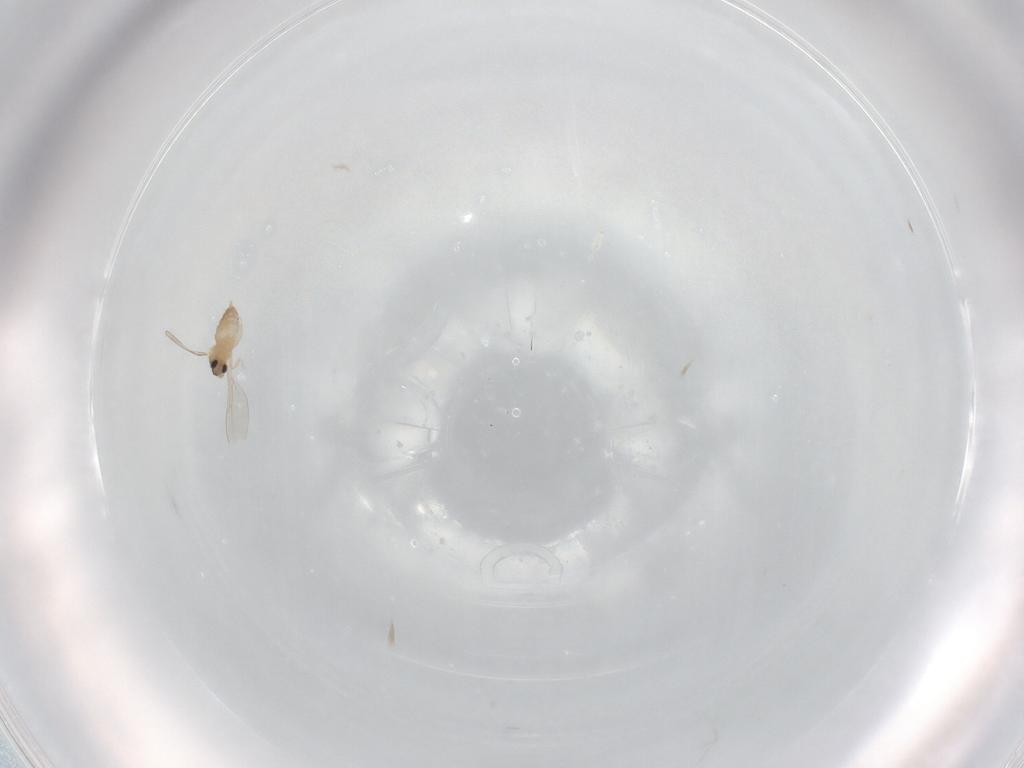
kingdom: Animalia
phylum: Arthropoda
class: Insecta
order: Diptera
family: Cecidomyiidae
